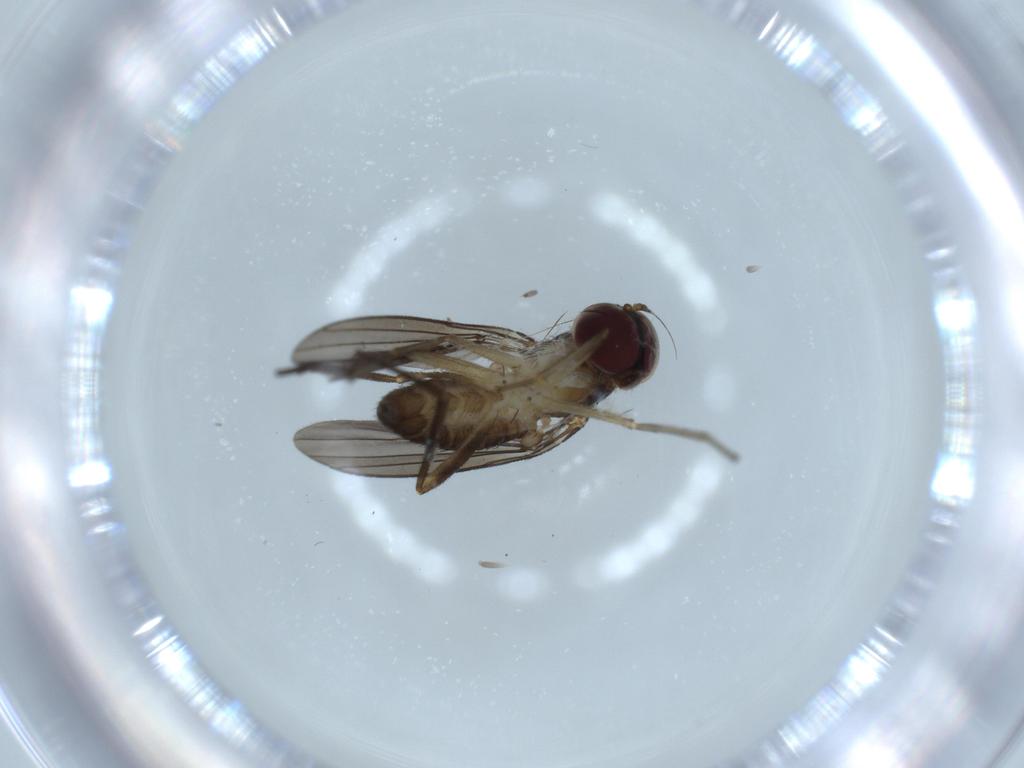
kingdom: Animalia
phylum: Arthropoda
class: Insecta
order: Diptera
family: Dolichopodidae
